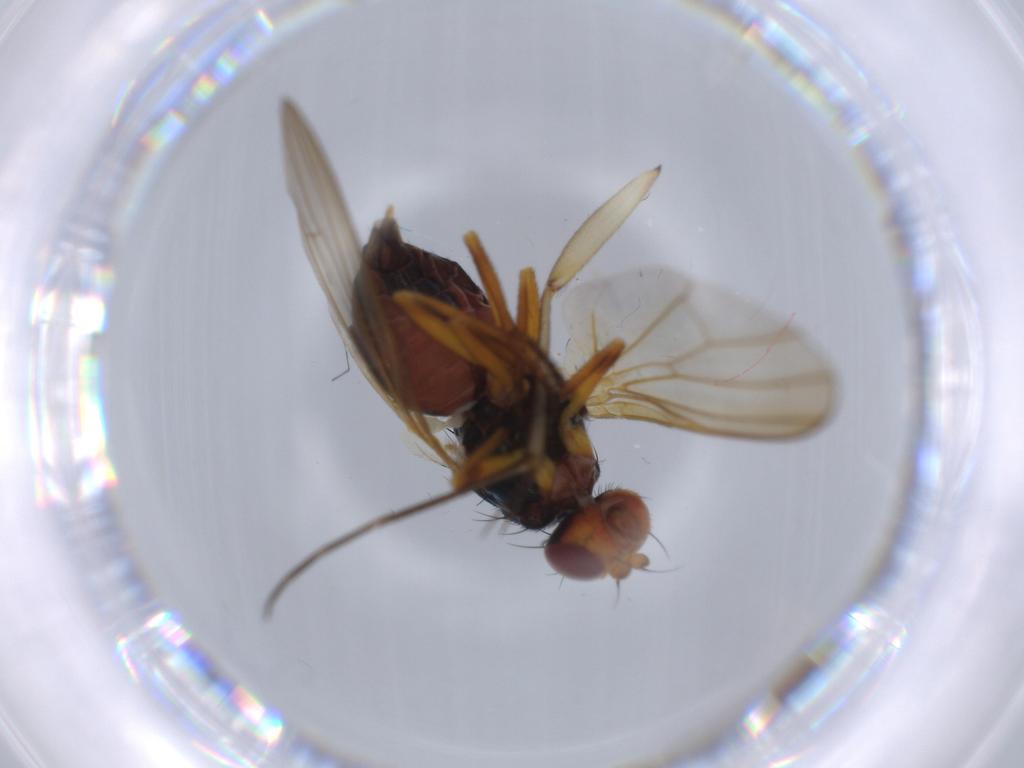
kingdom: Animalia
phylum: Arthropoda
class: Insecta
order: Diptera
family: Piophilidae
